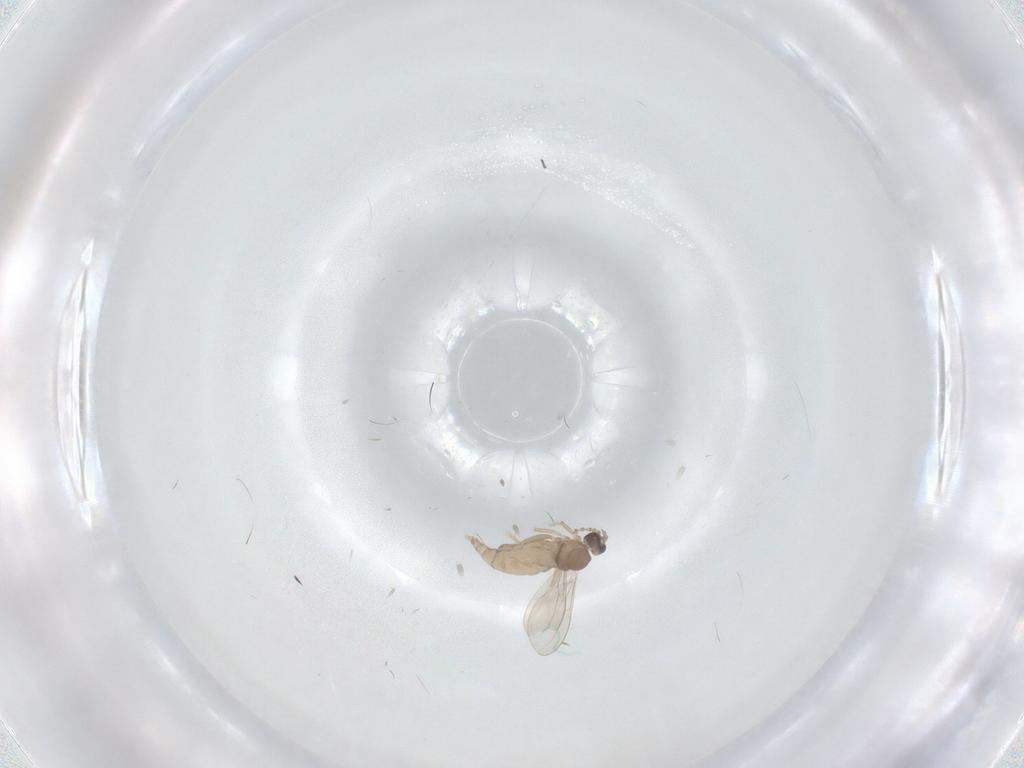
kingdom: Animalia
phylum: Arthropoda
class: Insecta
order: Diptera
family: Cecidomyiidae
